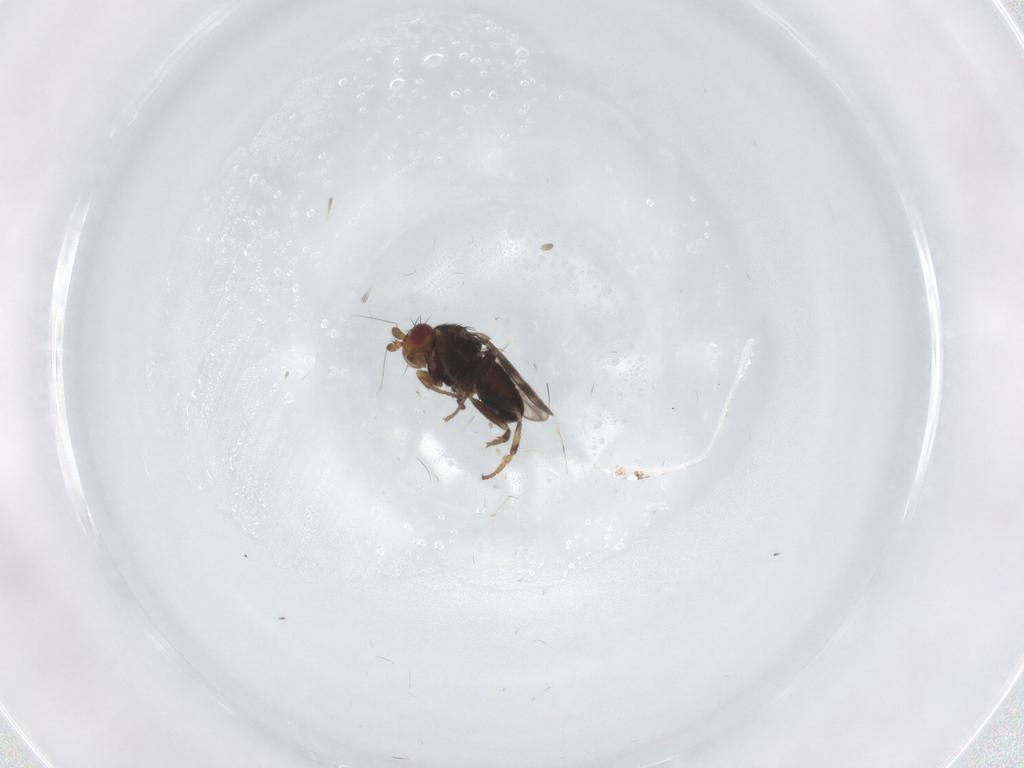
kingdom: Animalia
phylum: Arthropoda
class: Insecta
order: Diptera
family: Sphaeroceridae
